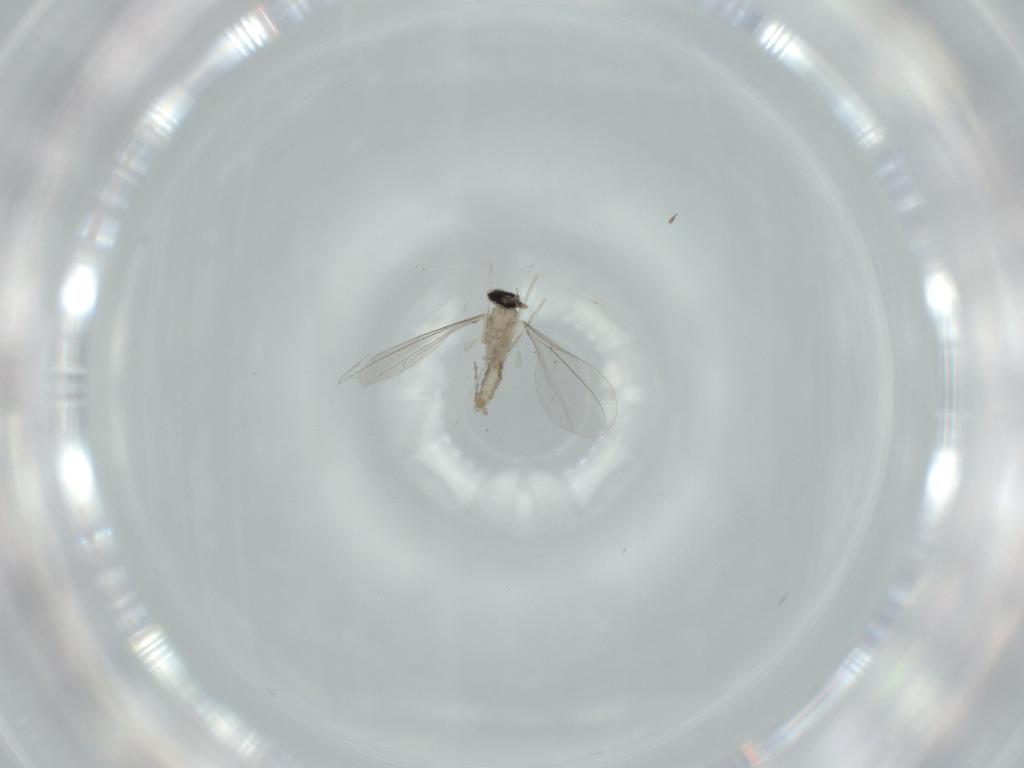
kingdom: Animalia
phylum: Arthropoda
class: Insecta
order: Diptera
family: Cecidomyiidae
